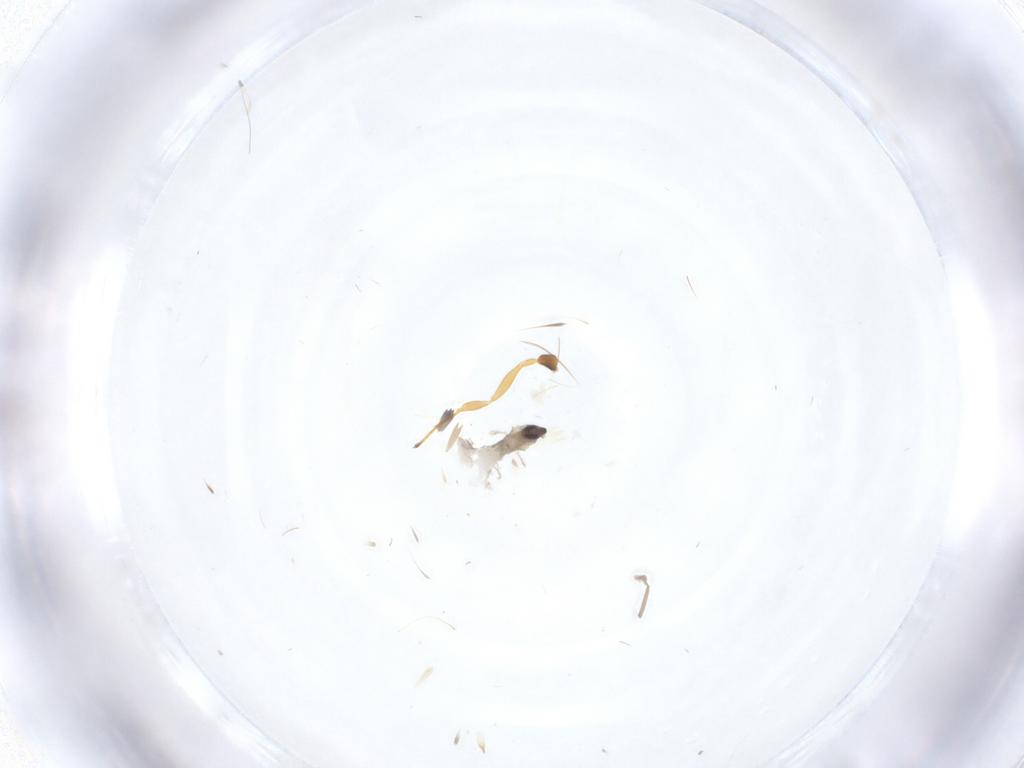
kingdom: Animalia
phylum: Arthropoda
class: Insecta
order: Diptera
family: Cecidomyiidae
